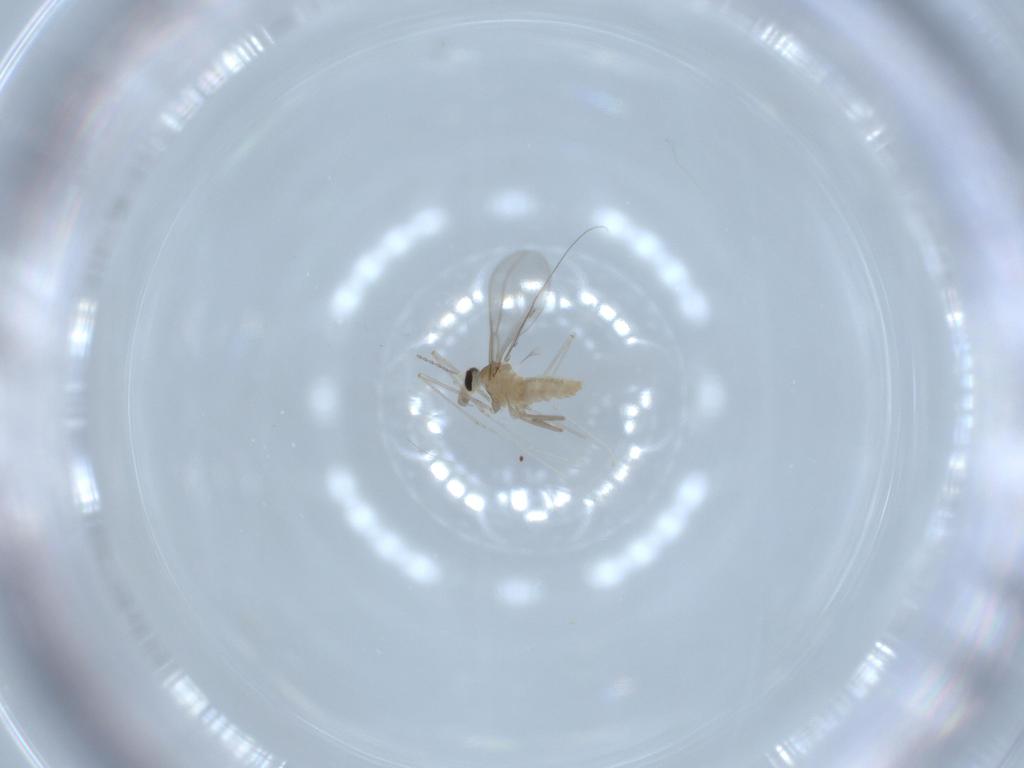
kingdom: Animalia
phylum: Arthropoda
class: Insecta
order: Diptera
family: Cecidomyiidae
